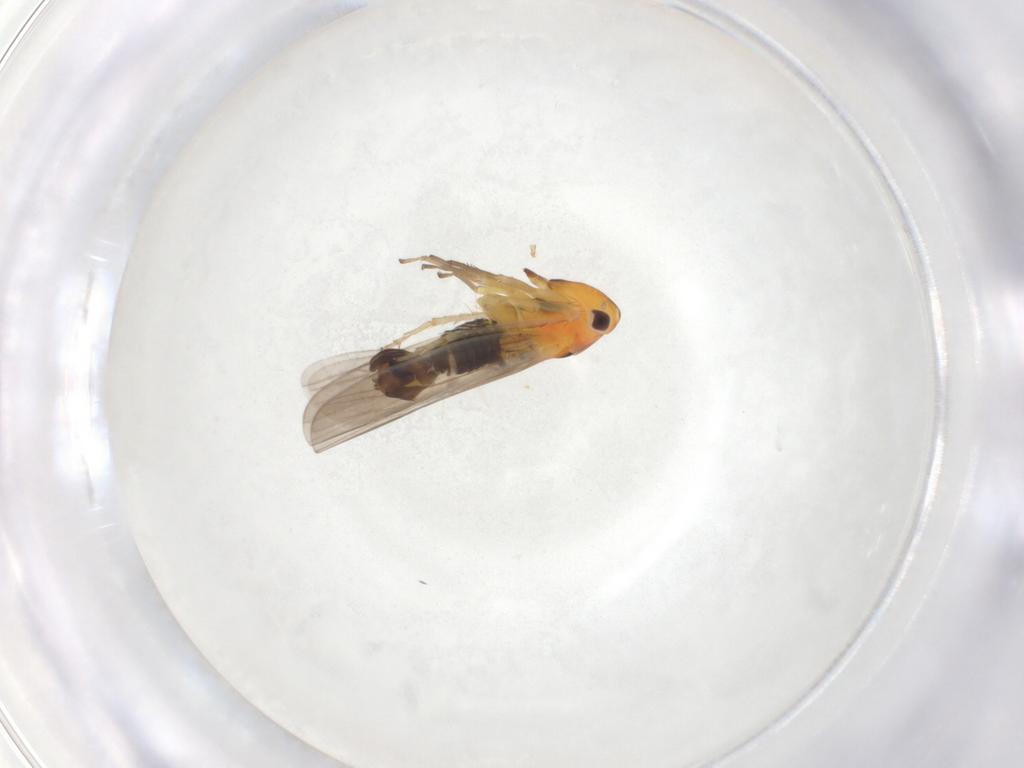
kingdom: Animalia
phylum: Arthropoda
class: Insecta
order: Hemiptera
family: Cicadellidae
